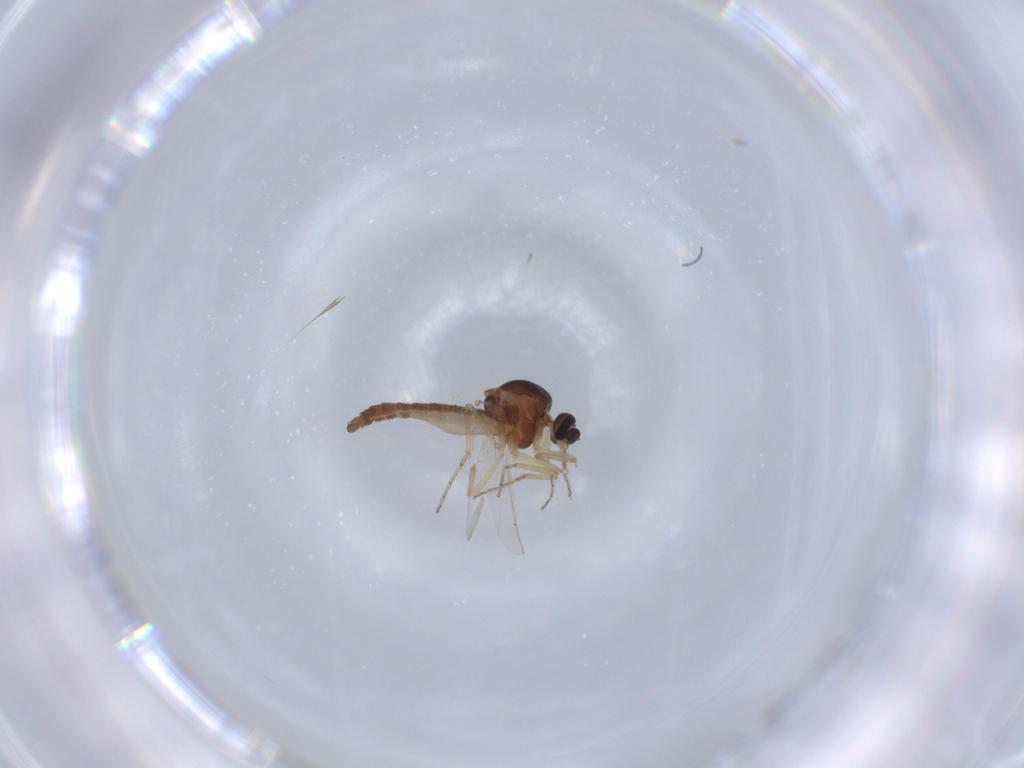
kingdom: Animalia
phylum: Arthropoda
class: Insecta
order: Diptera
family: Ceratopogonidae
